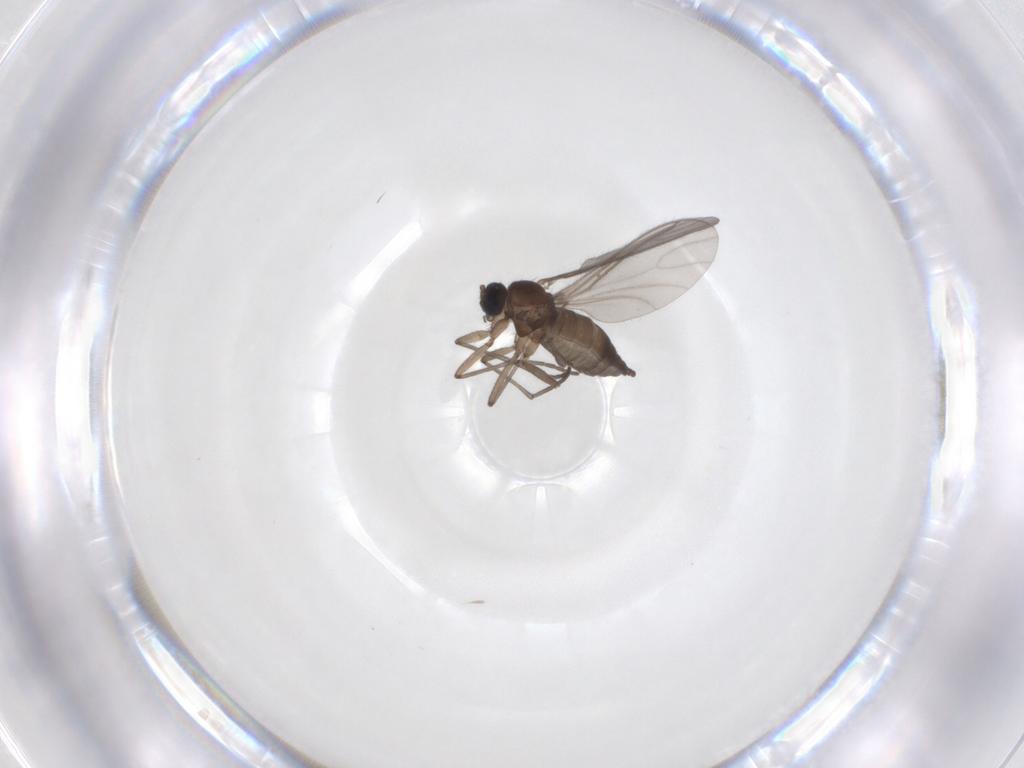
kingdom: Animalia
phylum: Arthropoda
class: Insecta
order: Diptera
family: Sciaridae
